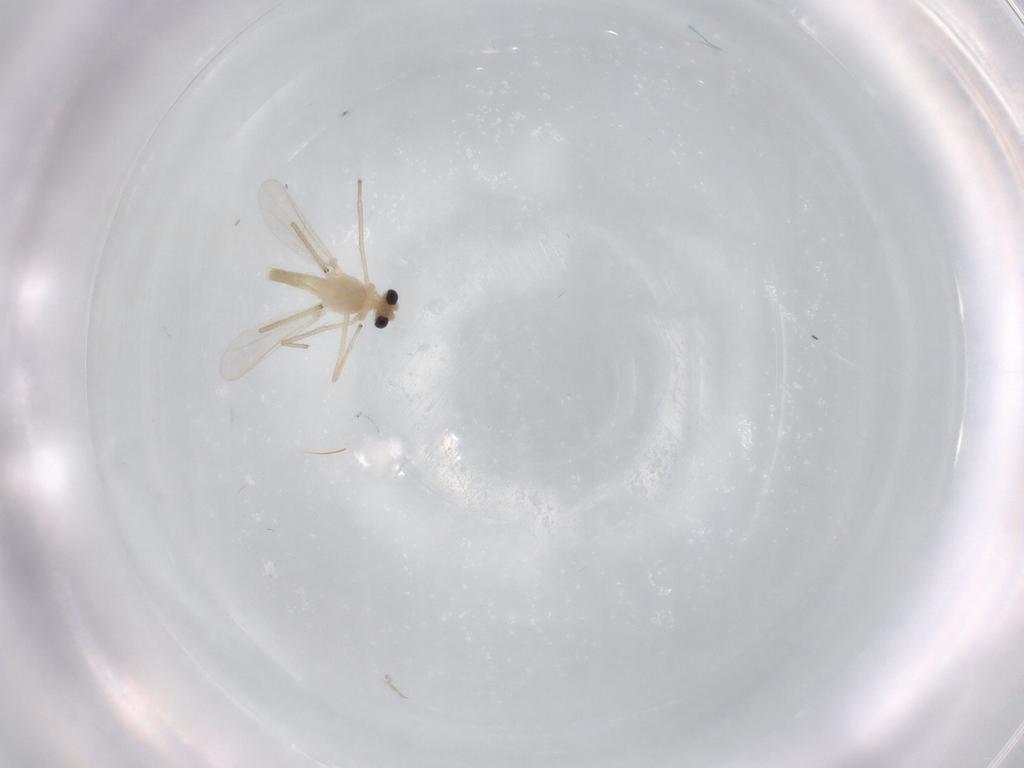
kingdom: Animalia
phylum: Arthropoda
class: Insecta
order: Diptera
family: Chironomidae
